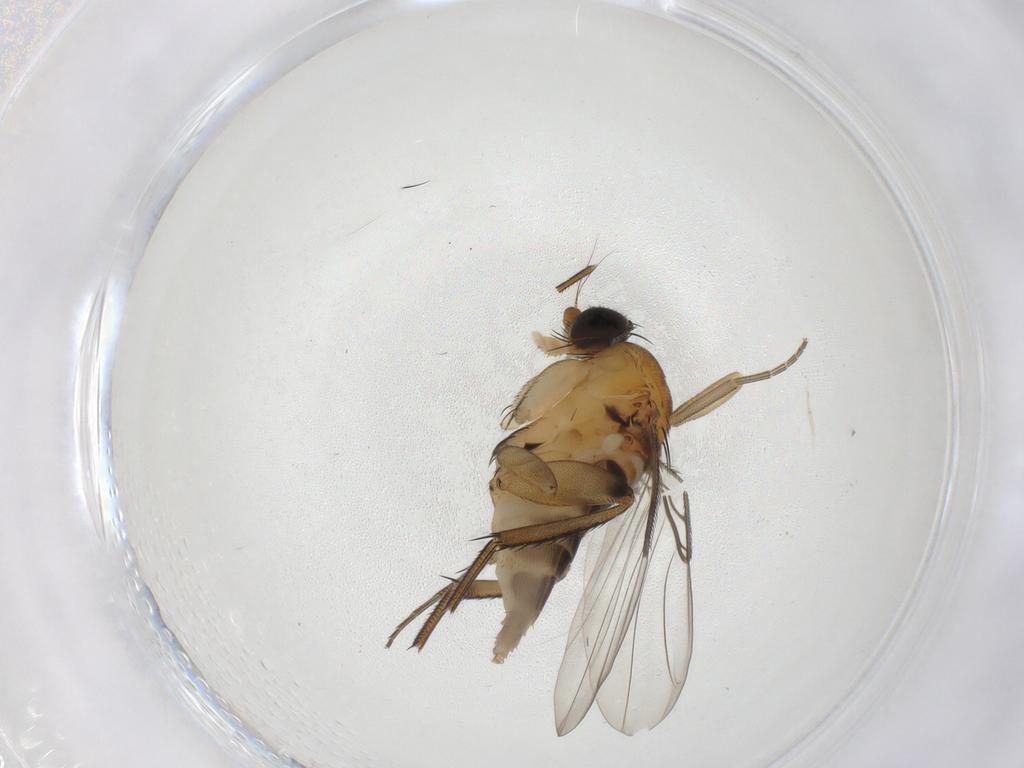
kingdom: Animalia
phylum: Arthropoda
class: Insecta
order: Diptera
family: Phoridae
